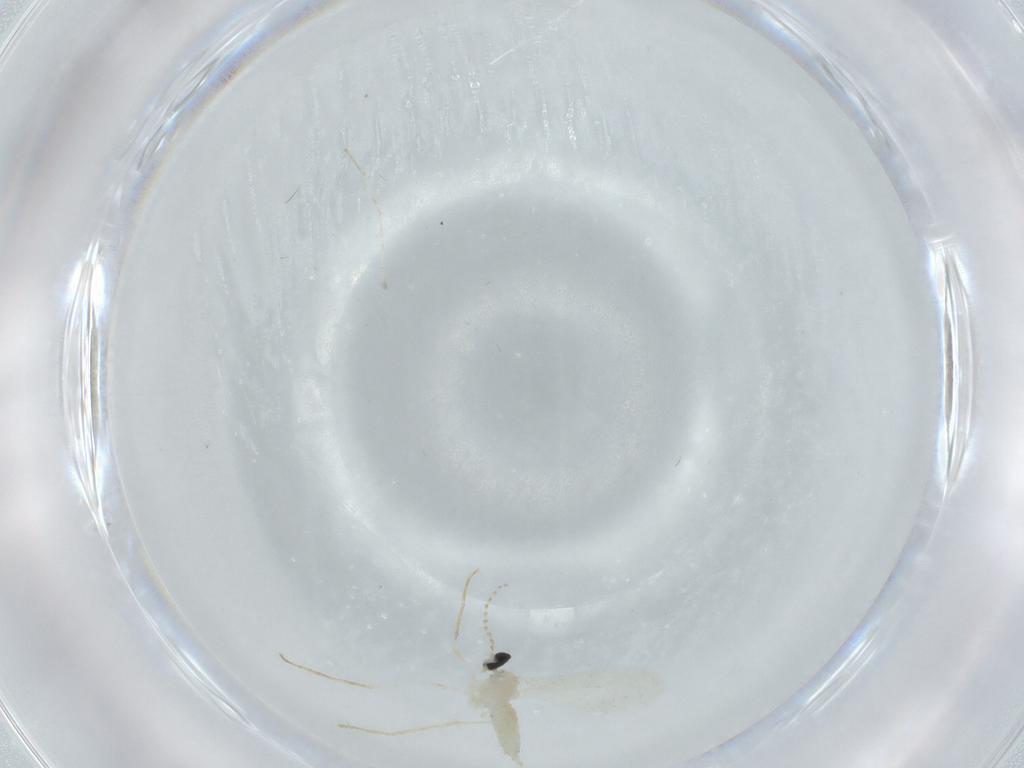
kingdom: Animalia
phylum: Arthropoda
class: Insecta
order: Diptera
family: Cecidomyiidae
